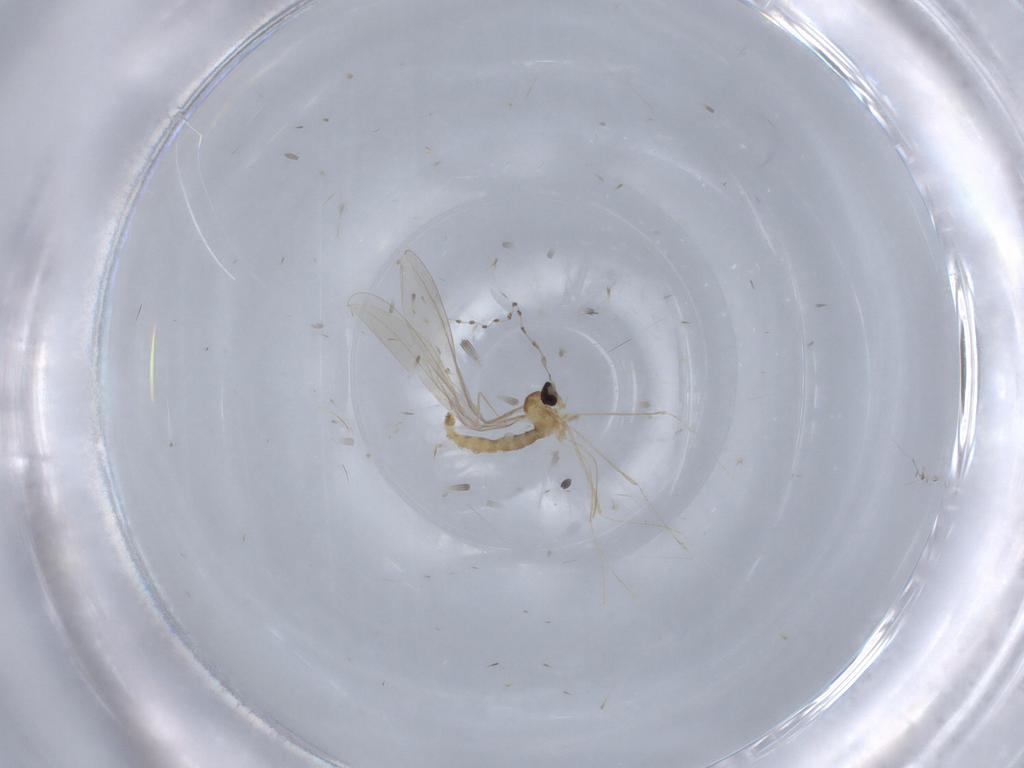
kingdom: Animalia
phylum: Arthropoda
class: Insecta
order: Diptera
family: Cecidomyiidae
